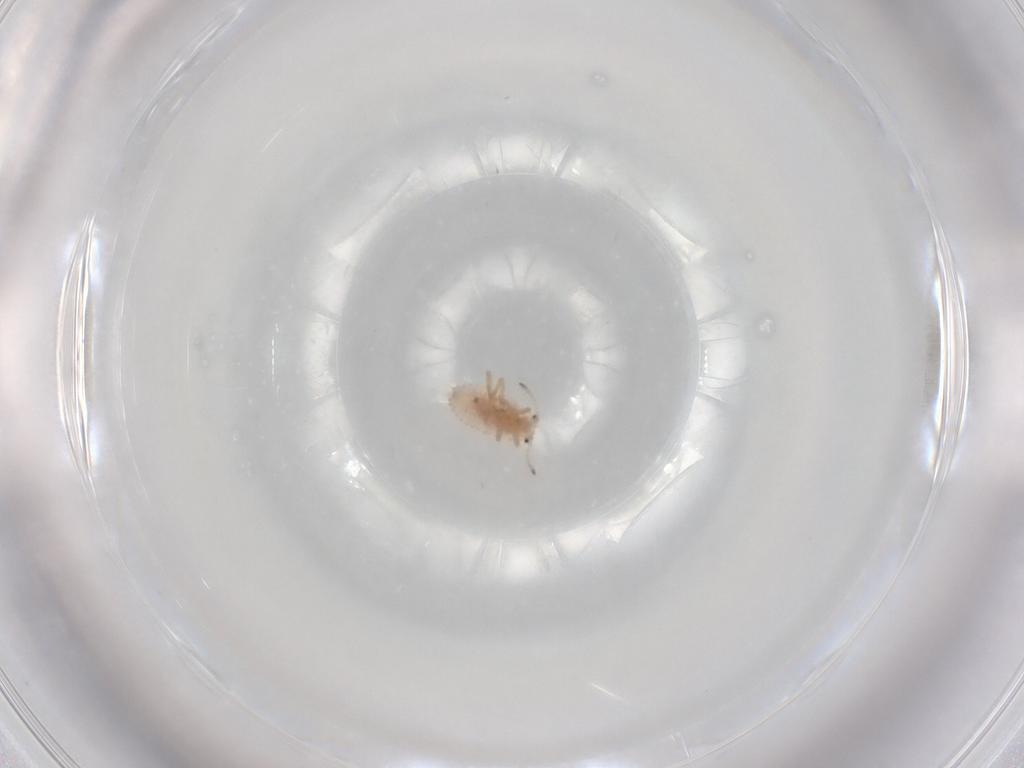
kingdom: Animalia
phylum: Arthropoda
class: Insecta
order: Hemiptera
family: Coccoidea_incertae_sedis
